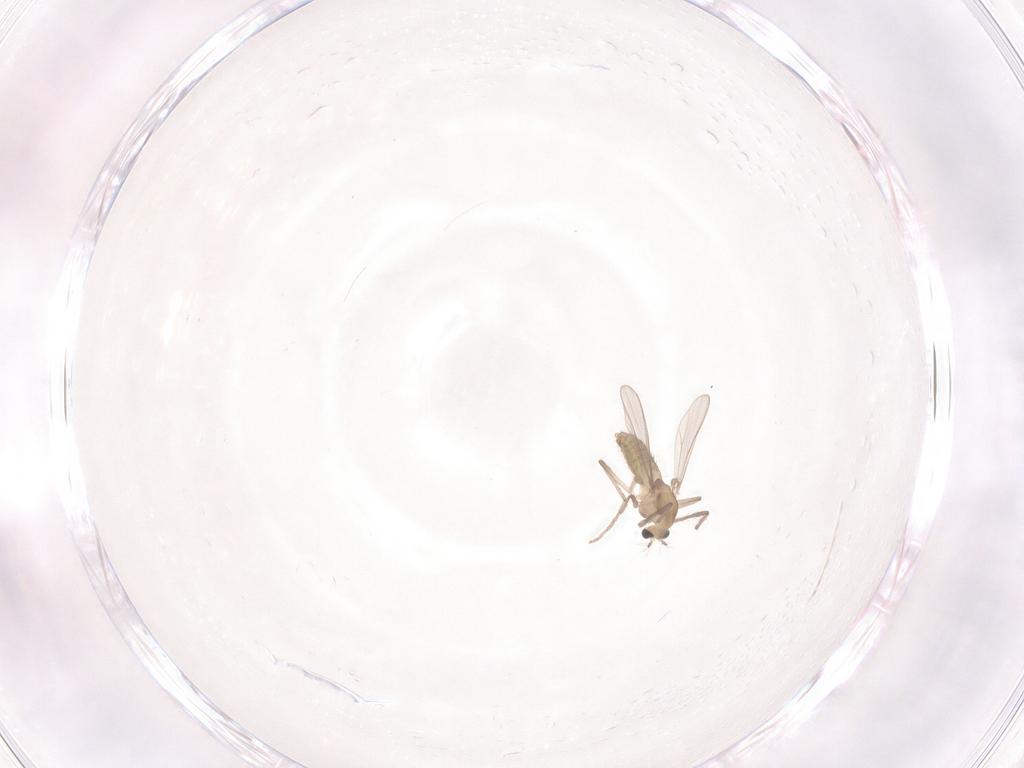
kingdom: Animalia
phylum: Arthropoda
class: Insecta
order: Diptera
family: Chironomidae
